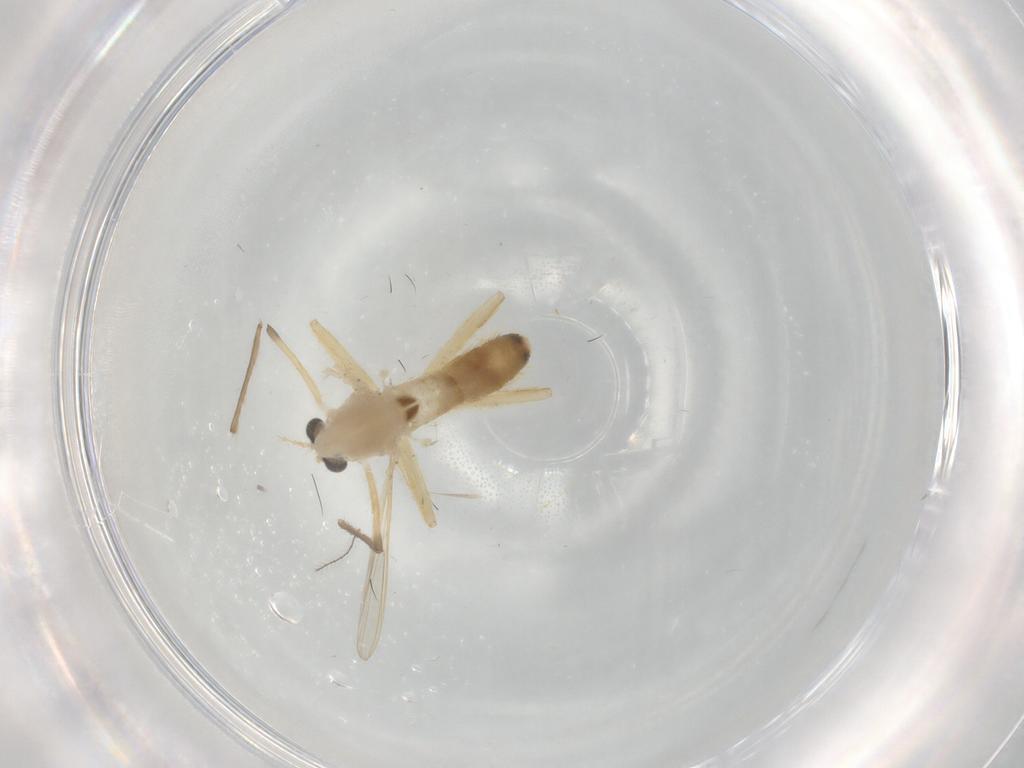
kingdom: Animalia
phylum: Arthropoda
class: Insecta
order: Diptera
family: Chironomidae
